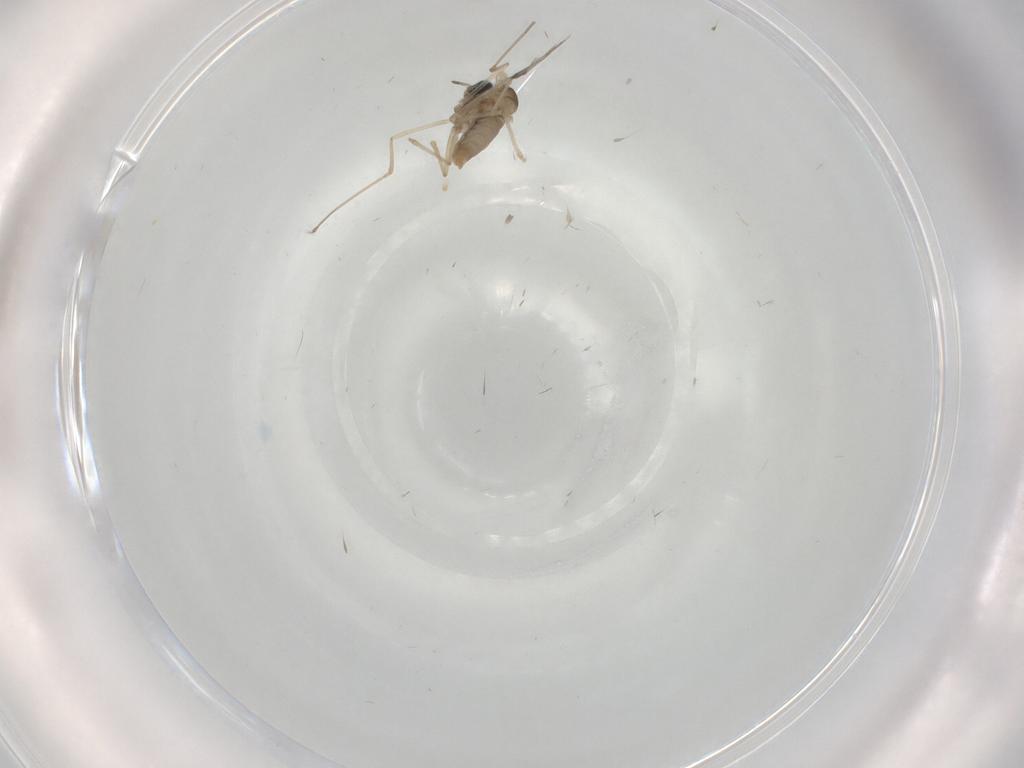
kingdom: Animalia
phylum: Arthropoda
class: Insecta
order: Diptera
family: Cecidomyiidae
